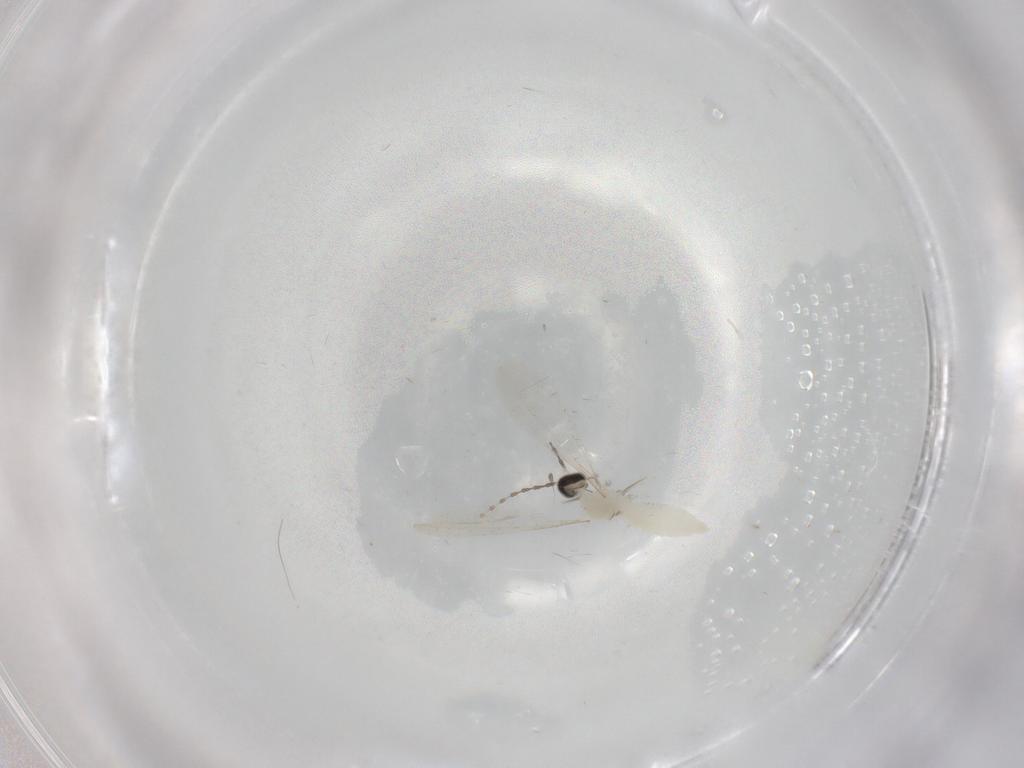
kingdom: Animalia
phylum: Arthropoda
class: Insecta
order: Diptera
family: Cecidomyiidae
